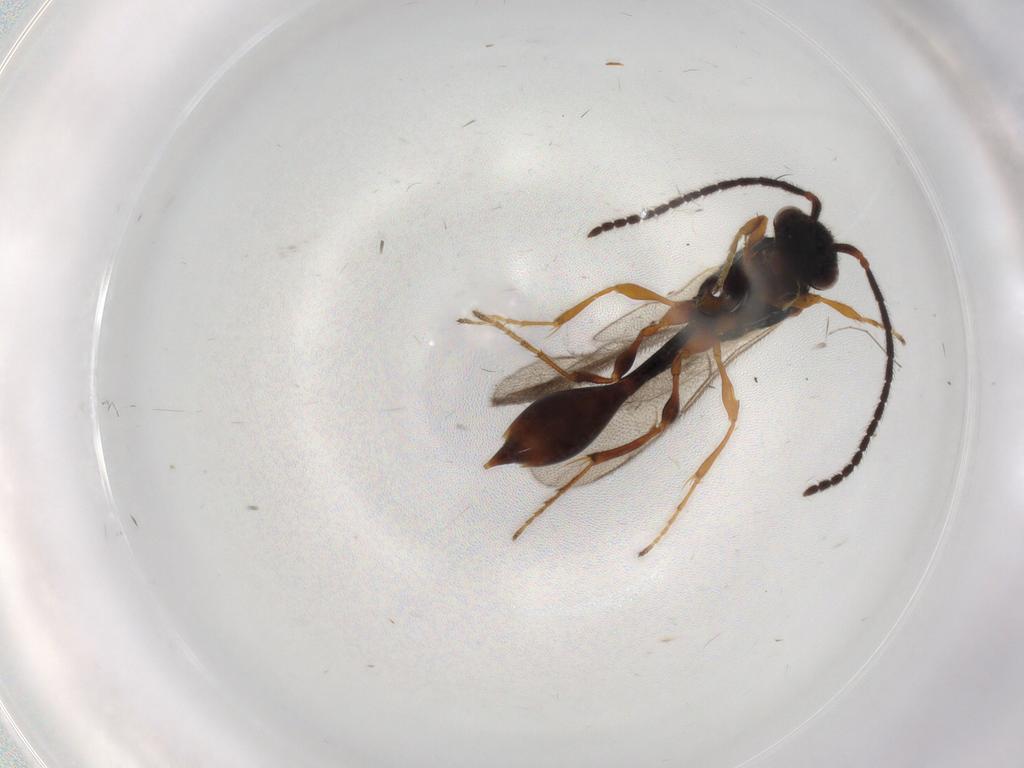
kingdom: Animalia
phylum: Arthropoda
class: Insecta
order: Hymenoptera
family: Diapriidae
